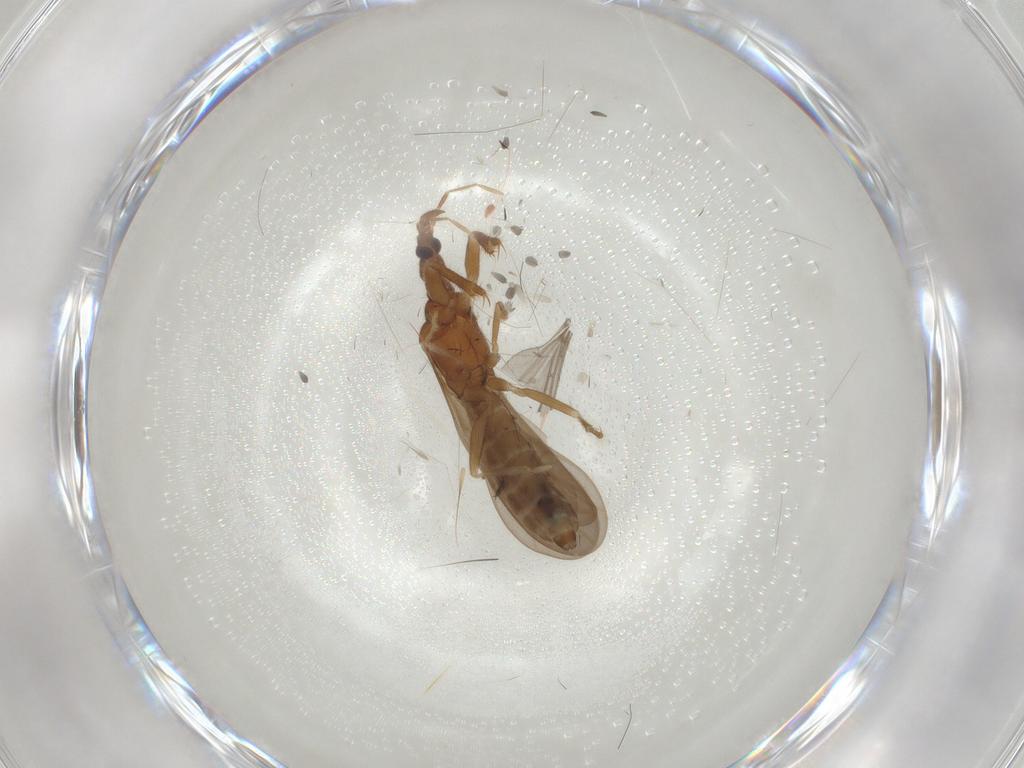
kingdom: Animalia
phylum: Arthropoda
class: Insecta
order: Hemiptera
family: Enicocephalidae
